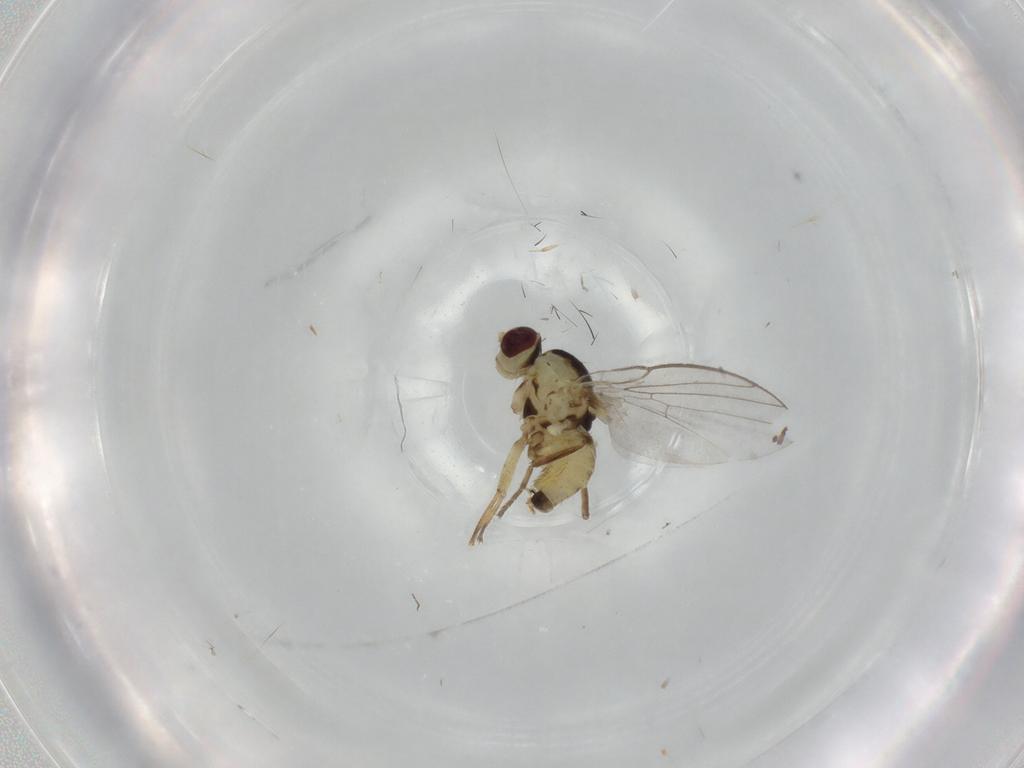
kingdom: Animalia
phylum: Arthropoda
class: Insecta
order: Diptera
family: Agromyzidae
